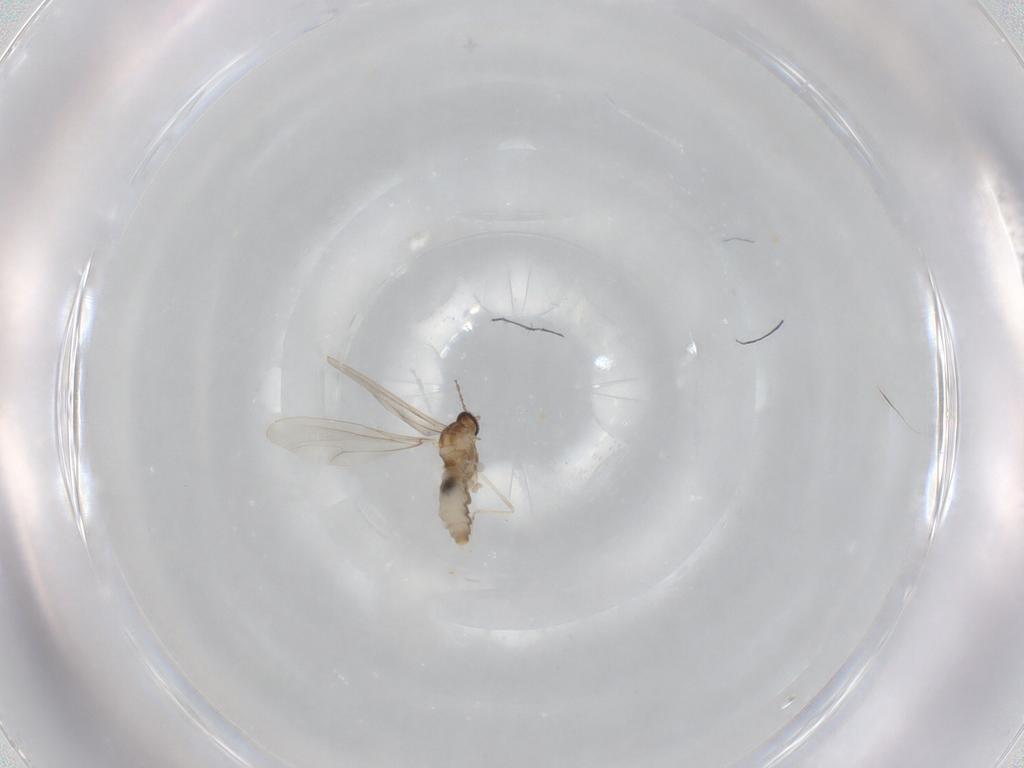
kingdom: Animalia
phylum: Arthropoda
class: Insecta
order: Diptera
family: Cecidomyiidae
